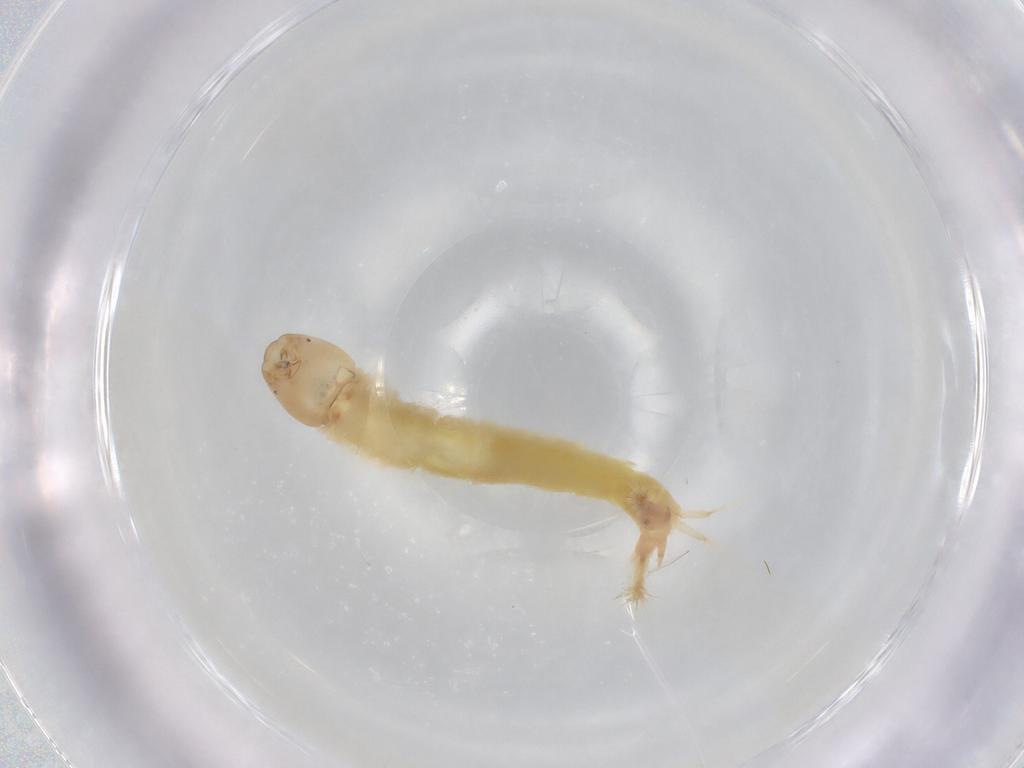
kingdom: Animalia
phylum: Arthropoda
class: Insecta
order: Diptera
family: Chironomidae
